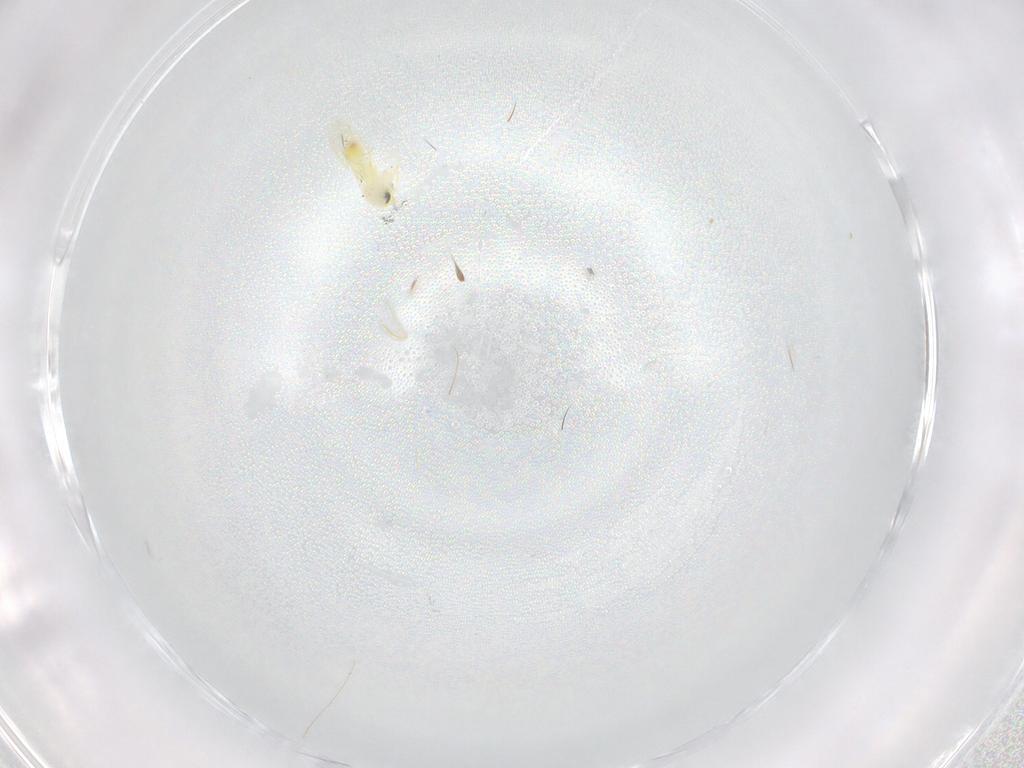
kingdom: Animalia
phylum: Arthropoda
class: Insecta
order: Hemiptera
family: Aleyrodidae
